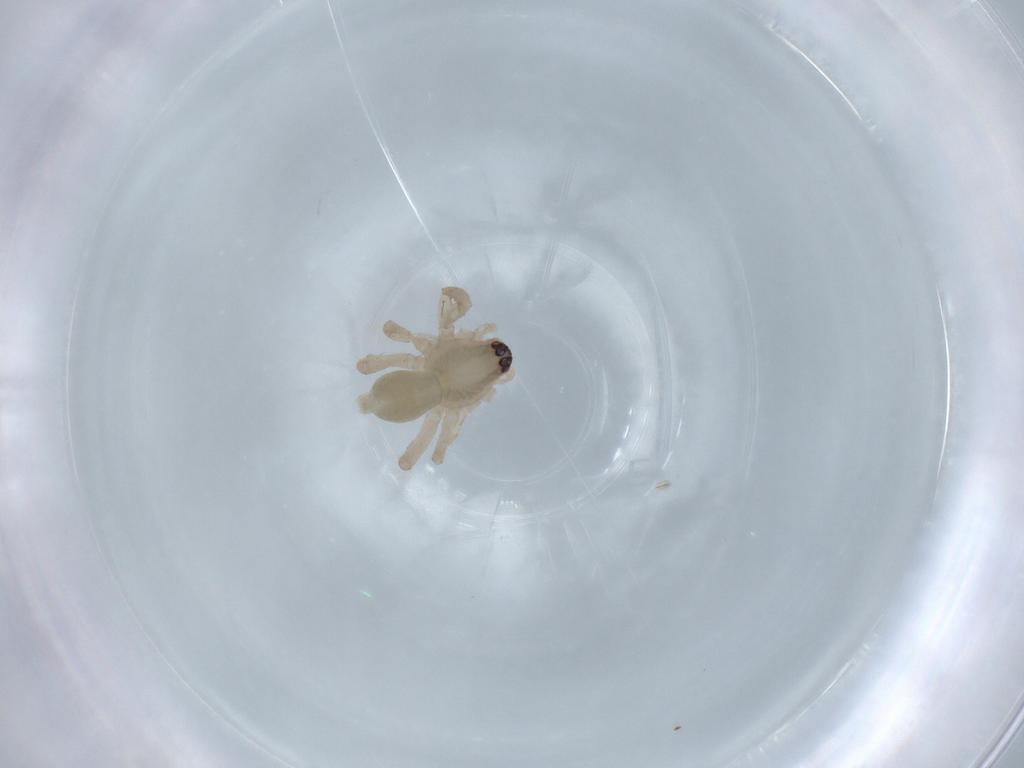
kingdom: Animalia
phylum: Arthropoda
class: Arachnida
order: Araneae
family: Anyphaenidae
